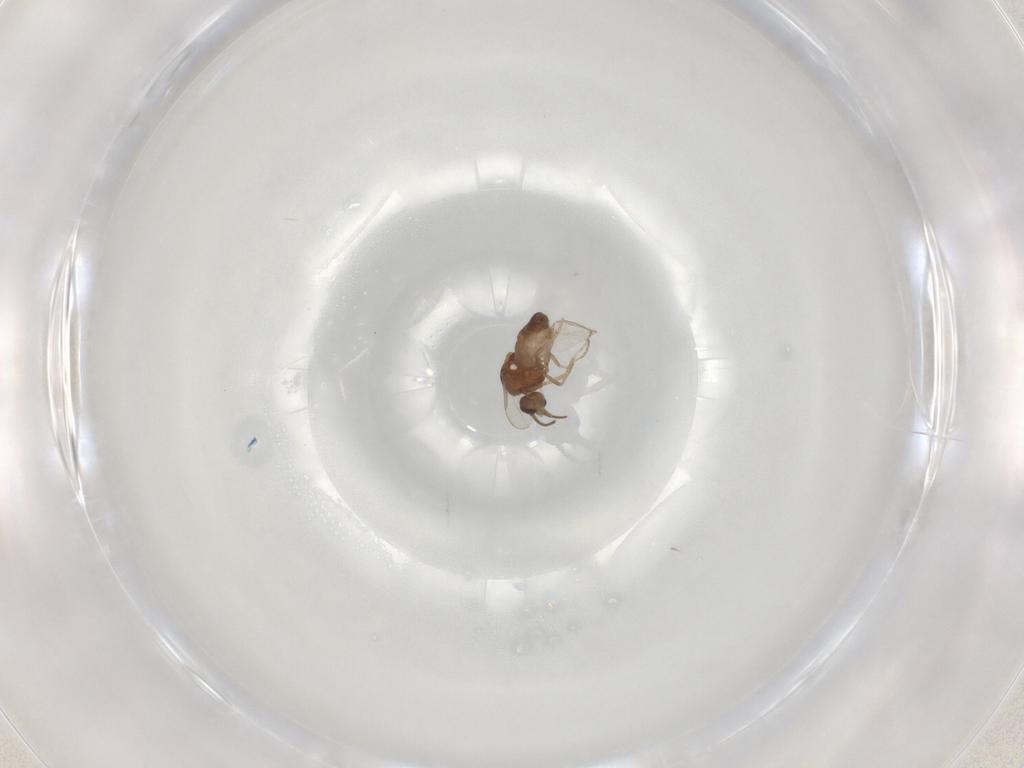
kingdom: Animalia
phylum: Arthropoda
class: Insecta
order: Diptera
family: Ceratopogonidae
